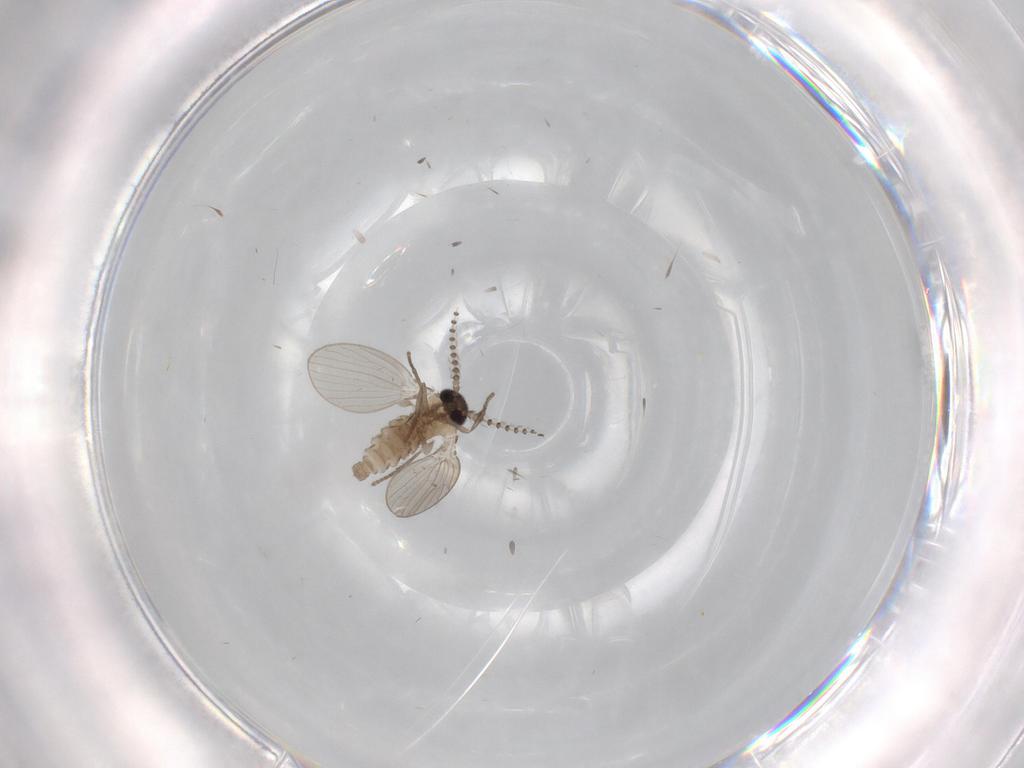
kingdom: Animalia
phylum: Arthropoda
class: Insecta
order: Diptera
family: Psychodidae
